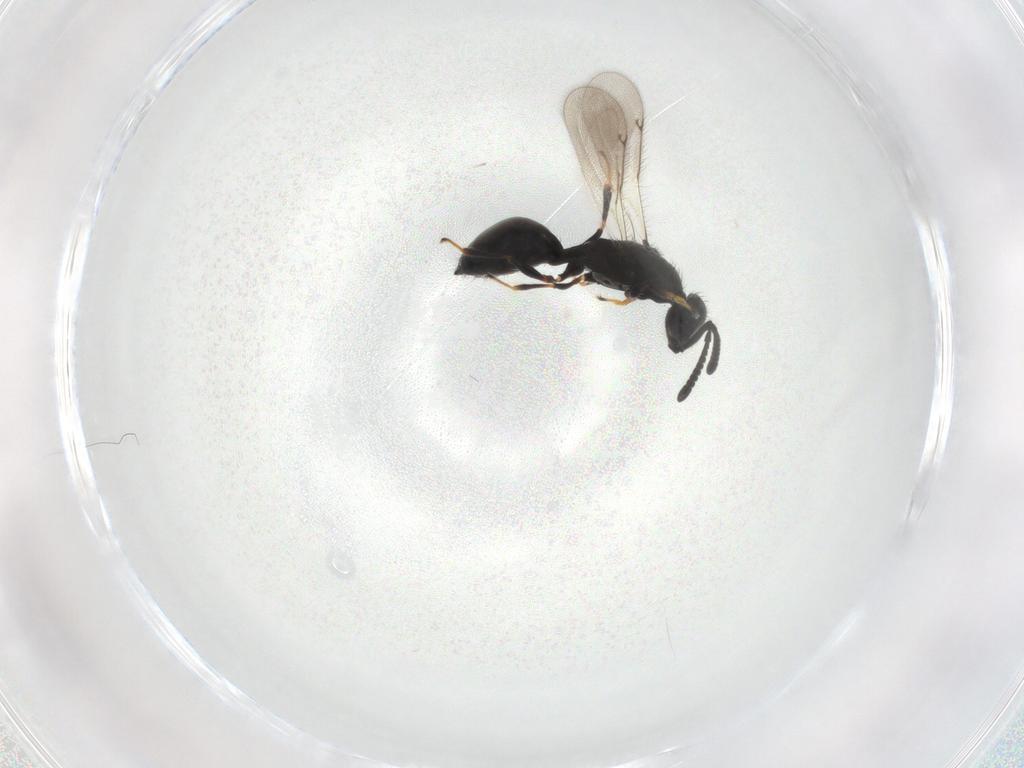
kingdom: Animalia
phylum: Arthropoda
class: Insecta
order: Hymenoptera
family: Spalangiidae
